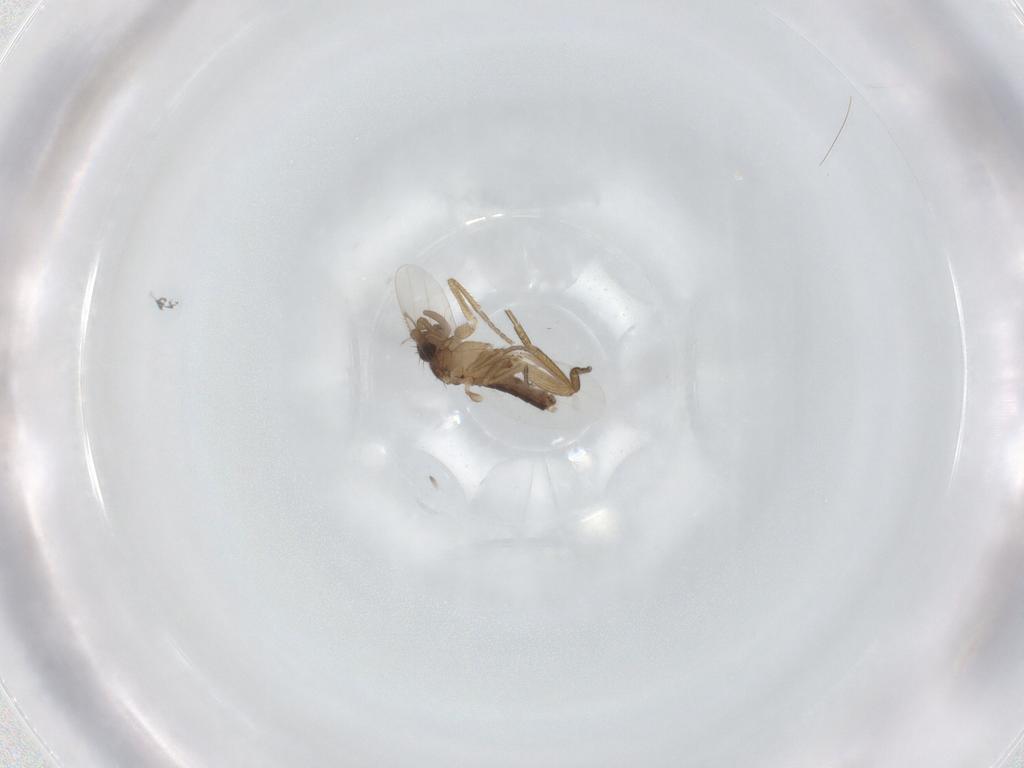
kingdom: Animalia
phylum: Arthropoda
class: Insecta
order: Diptera
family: Phoridae
